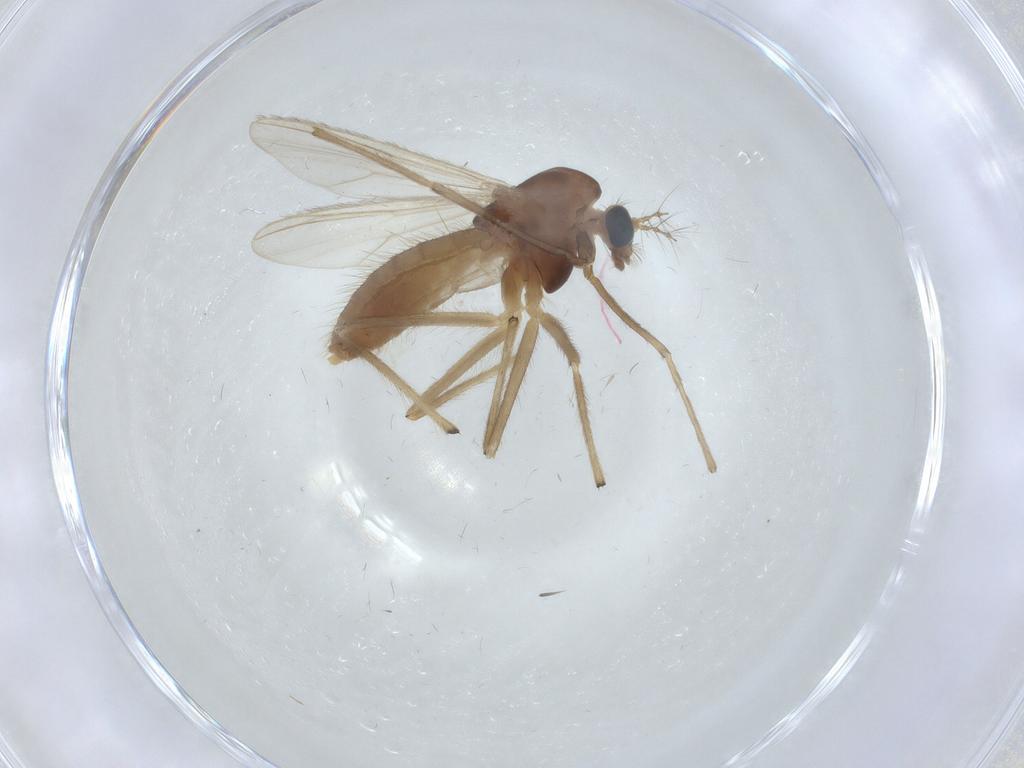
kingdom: Animalia
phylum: Arthropoda
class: Insecta
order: Diptera
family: Chironomidae
